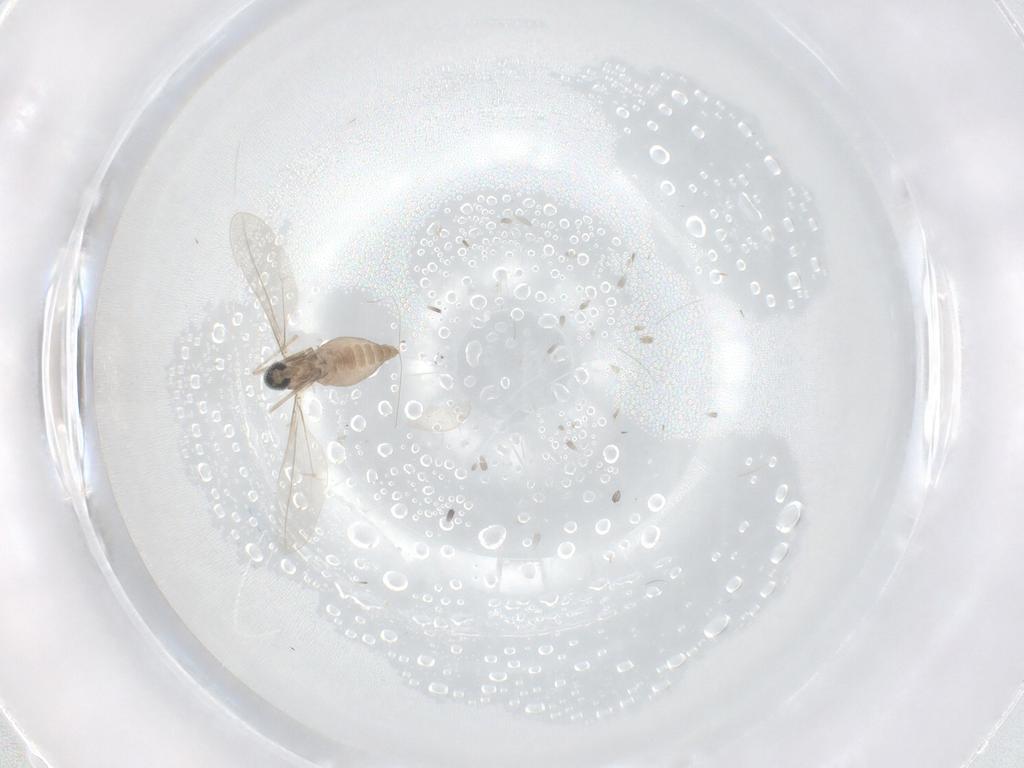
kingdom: Animalia
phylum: Arthropoda
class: Insecta
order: Diptera
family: Cecidomyiidae
